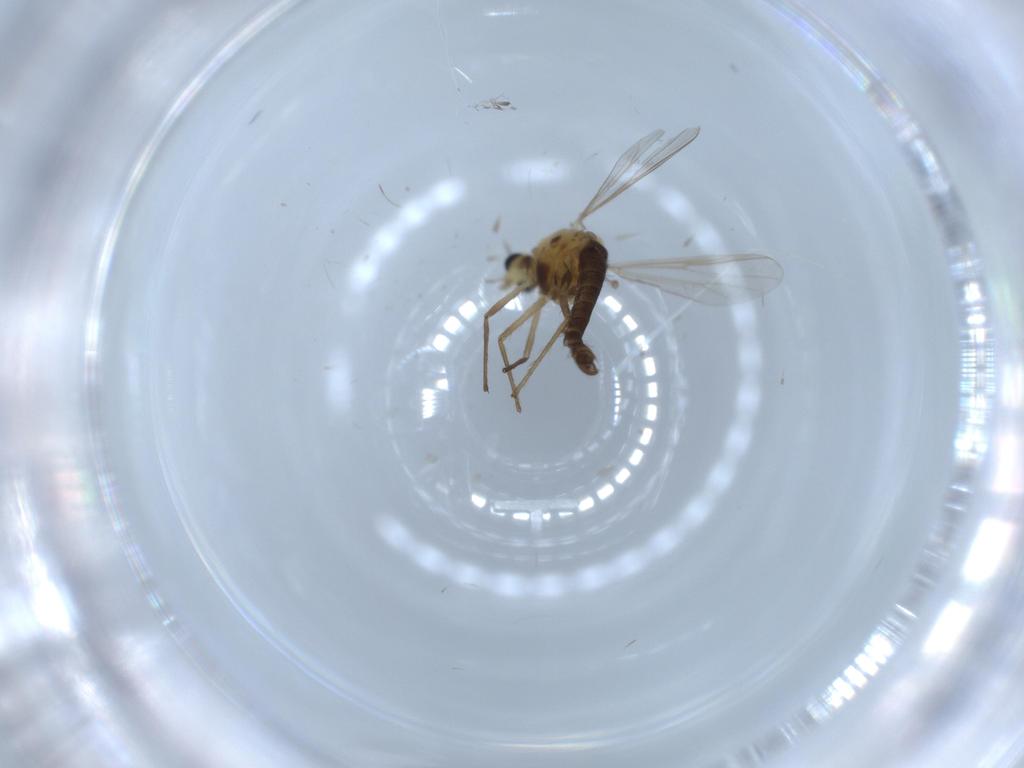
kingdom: Animalia
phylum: Arthropoda
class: Insecta
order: Diptera
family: Chironomidae
